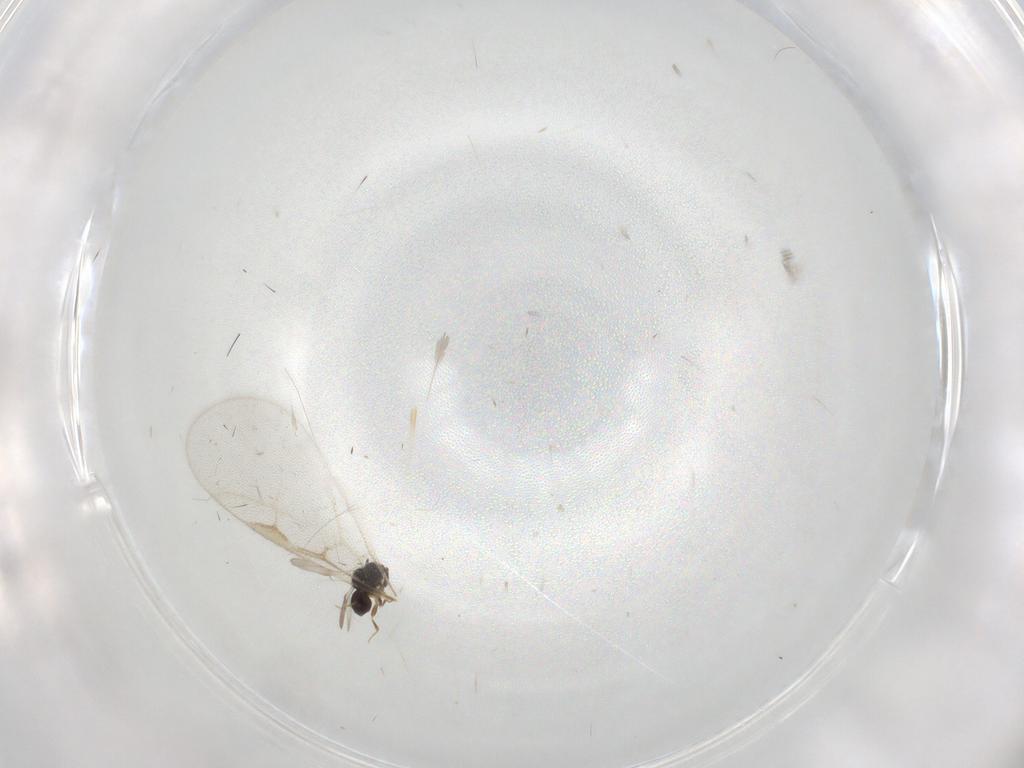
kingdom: Animalia
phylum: Arthropoda
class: Insecta
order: Hymenoptera
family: Formicidae
